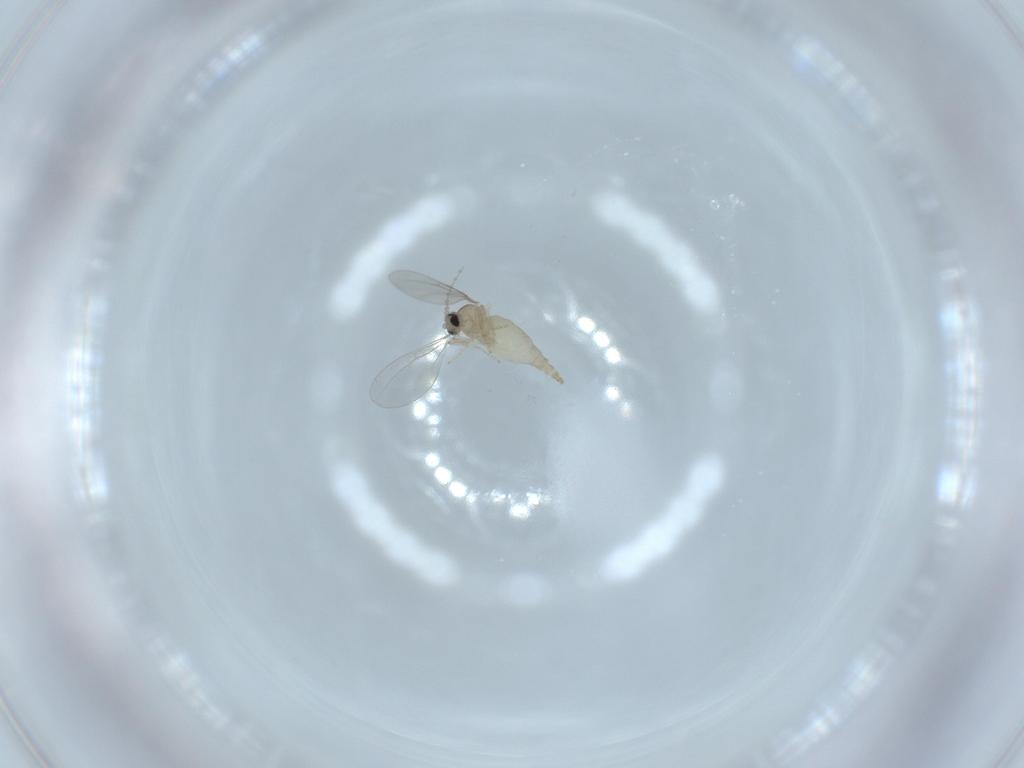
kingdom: Animalia
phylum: Arthropoda
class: Insecta
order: Diptera
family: Cecidomyiidae
